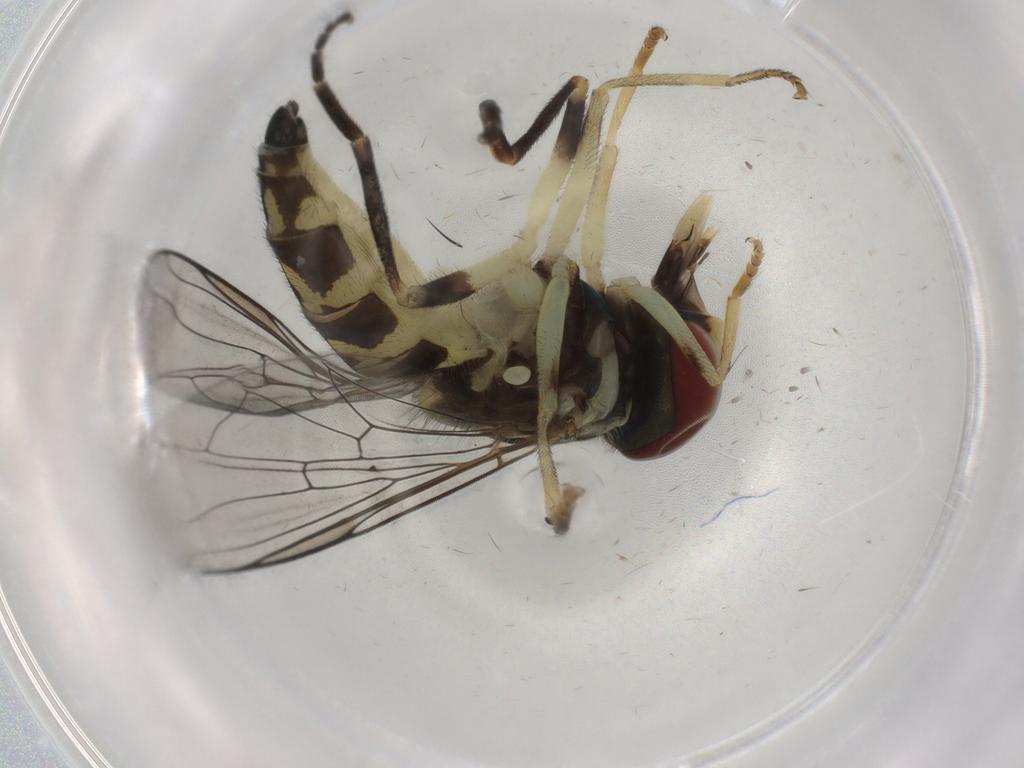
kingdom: Animalia
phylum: Arthropoda
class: Insecta
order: Diptera
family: Syrphidae
